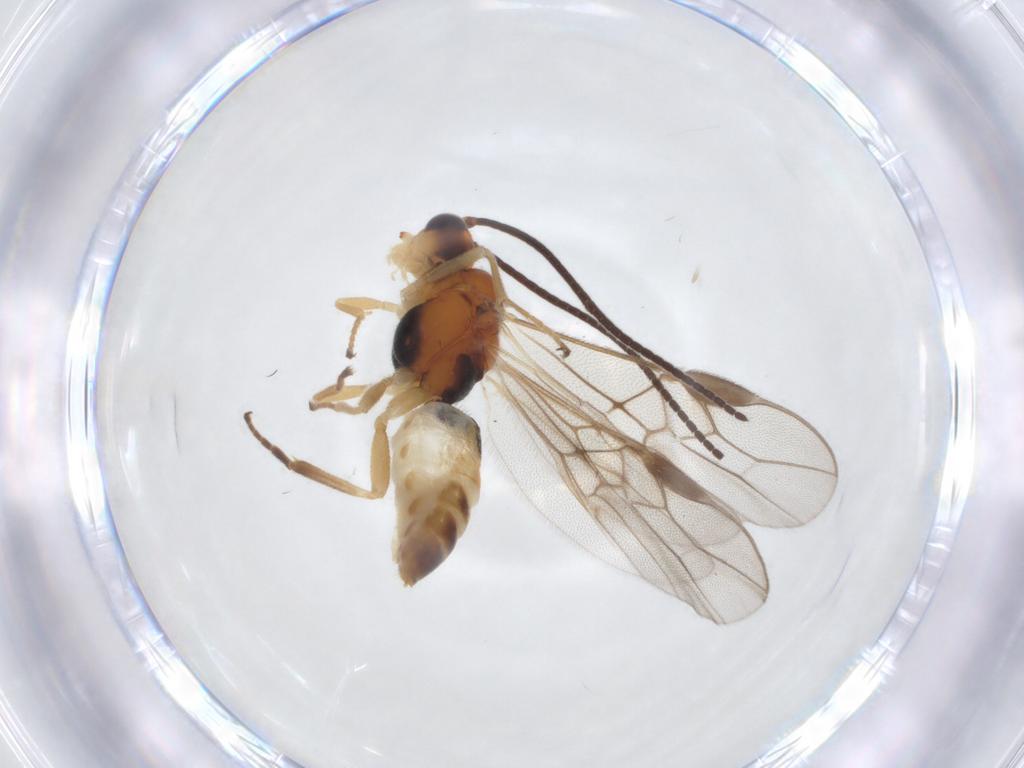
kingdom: Animalia
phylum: Arthropoda
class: Insecta
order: Hymenoptera
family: Braconidae
